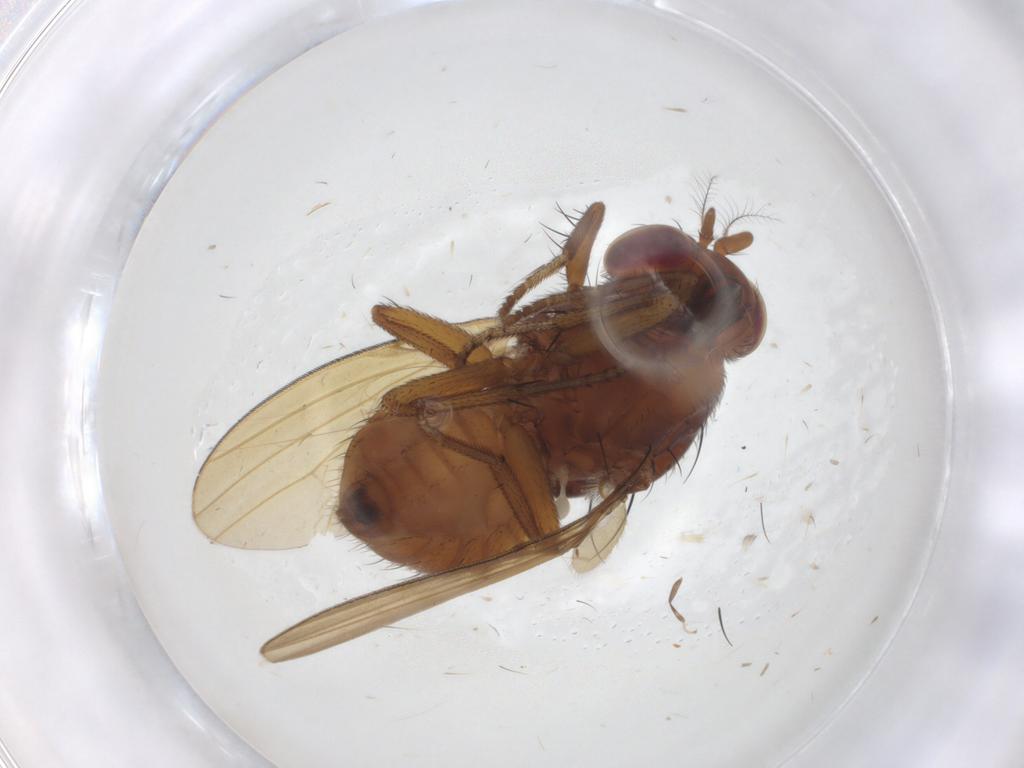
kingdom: Animalia
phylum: Arthropoda
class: Insecta
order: Diptera
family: Lauxaniidae
